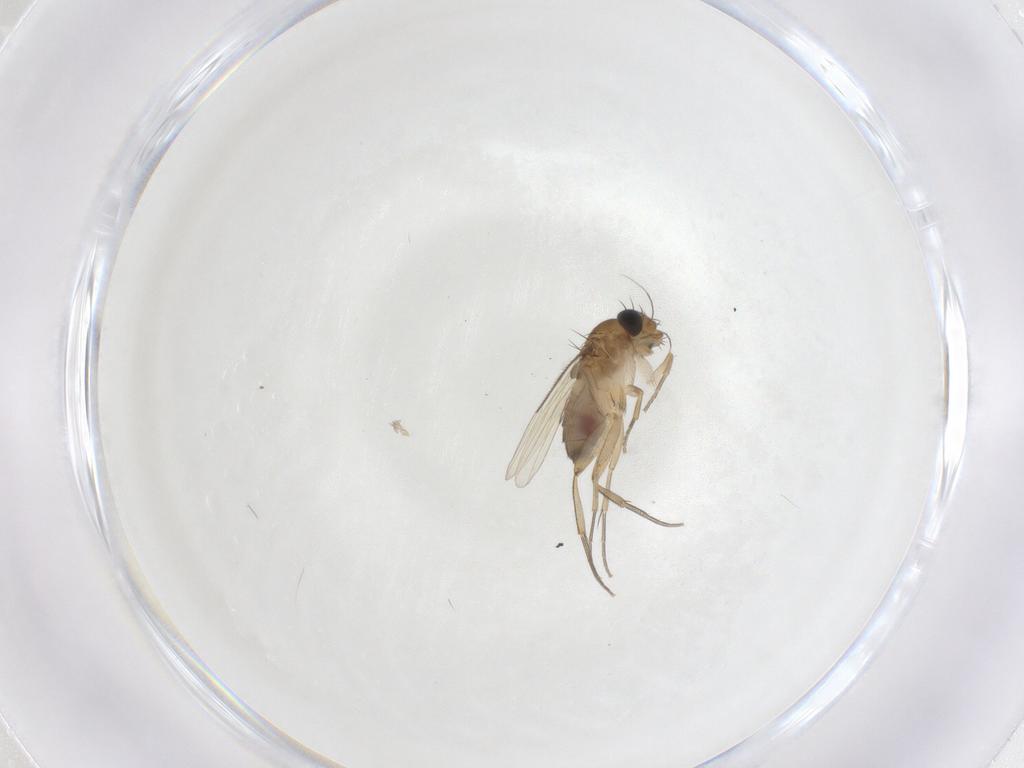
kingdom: Animalia
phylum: Arthropoda
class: Insecta
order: Diptera
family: Phoridae
